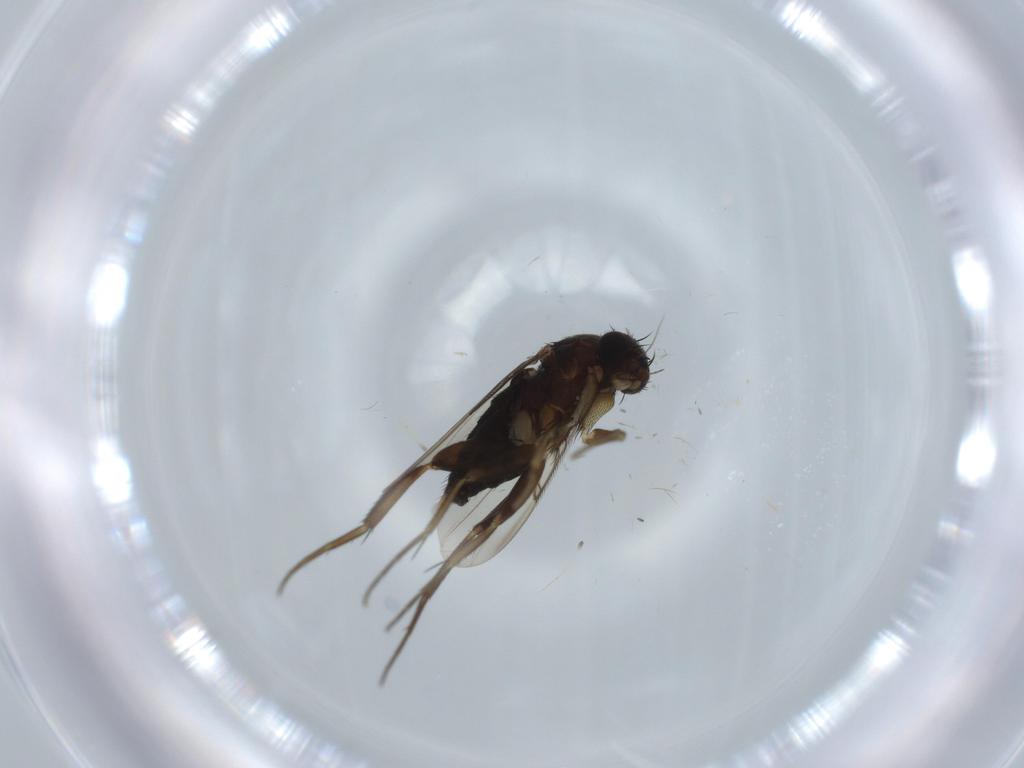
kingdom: Animalia
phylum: Arthropoda
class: Insecta
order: Diptera
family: Phoridae
